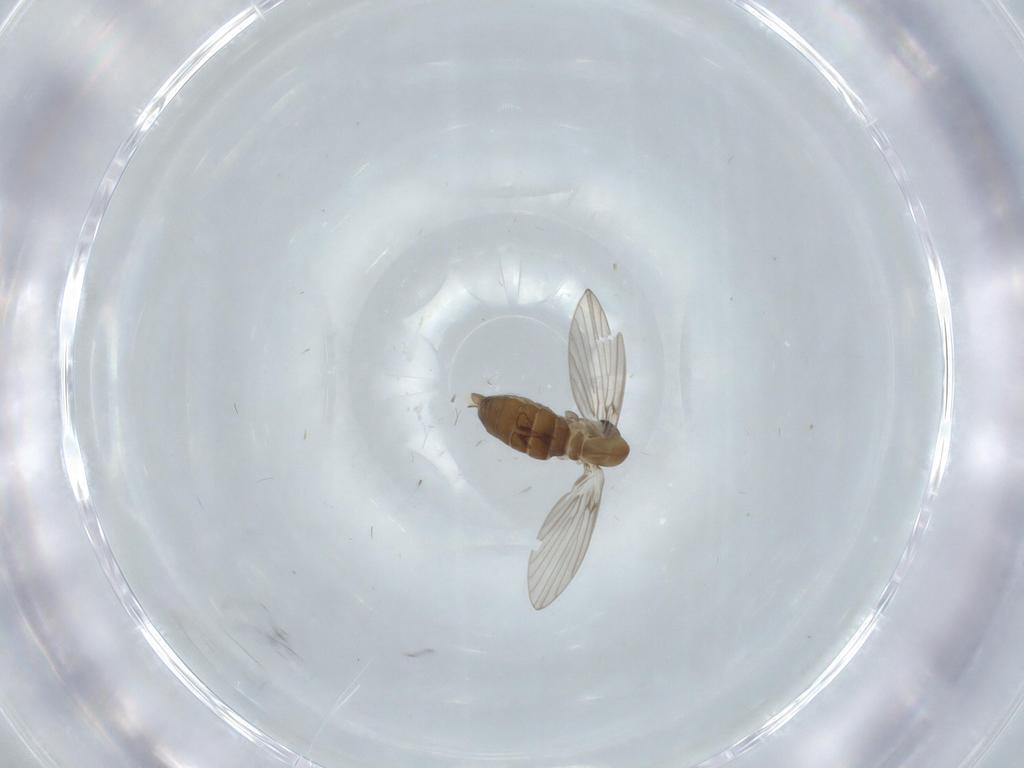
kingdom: Animalia
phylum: Arthropoda
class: Insecta
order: Diptera
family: Psychodidae
